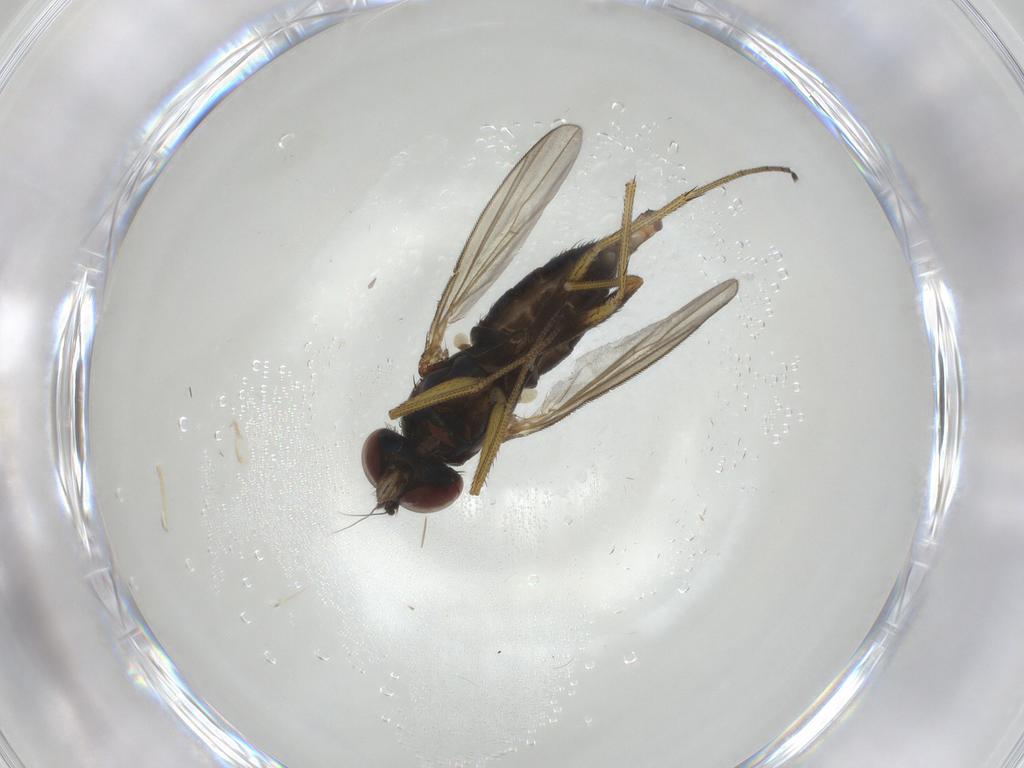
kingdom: Animalia
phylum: Arthropoda
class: Insecta
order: Diptera
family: Dolichopodidae
